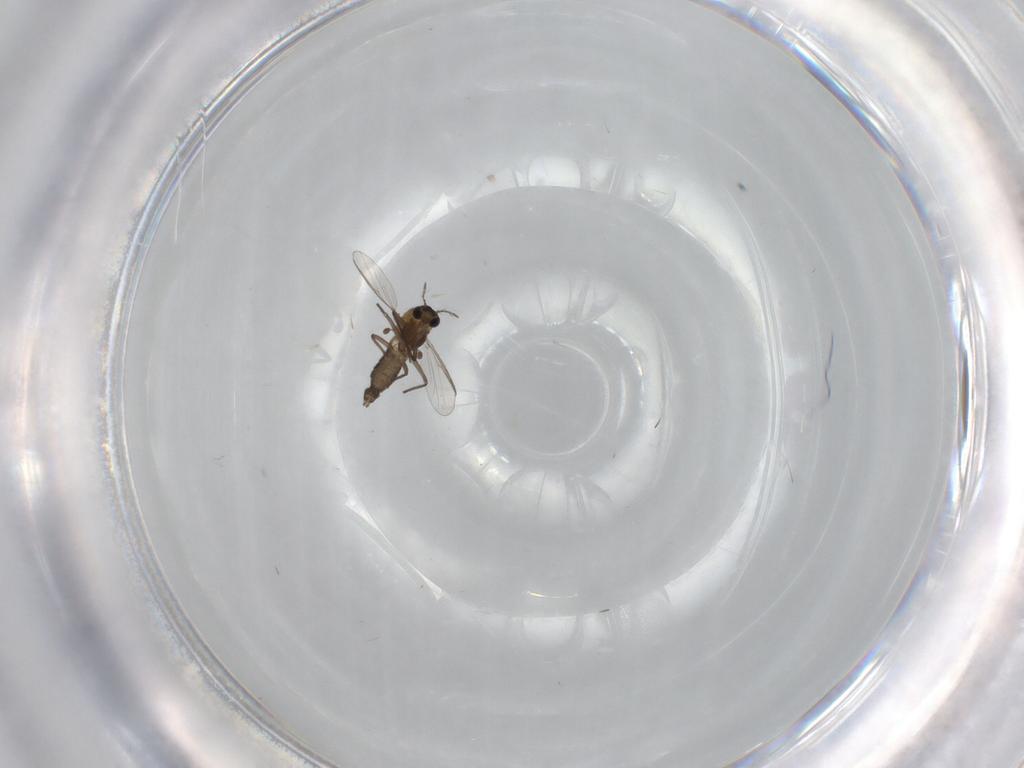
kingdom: Animalia
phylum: Arthropoda
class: Insecta
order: Diptera
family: Chironomidae
